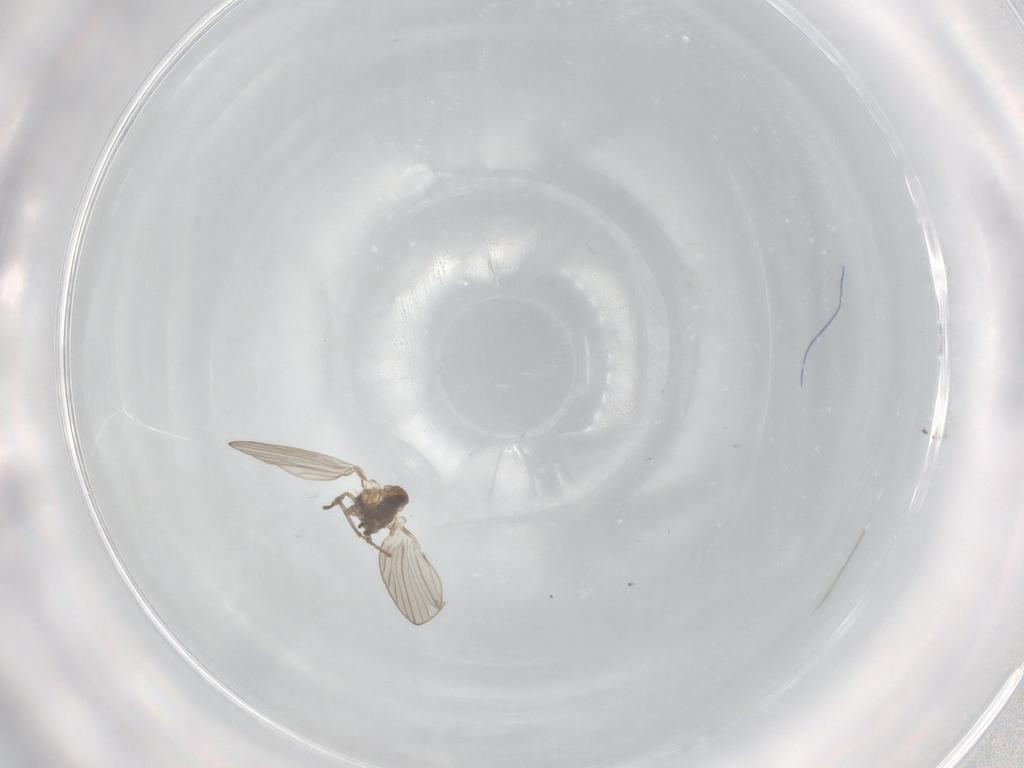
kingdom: Animalia
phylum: Arthropoda
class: Insecta
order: Diptera
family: Psychodidae
